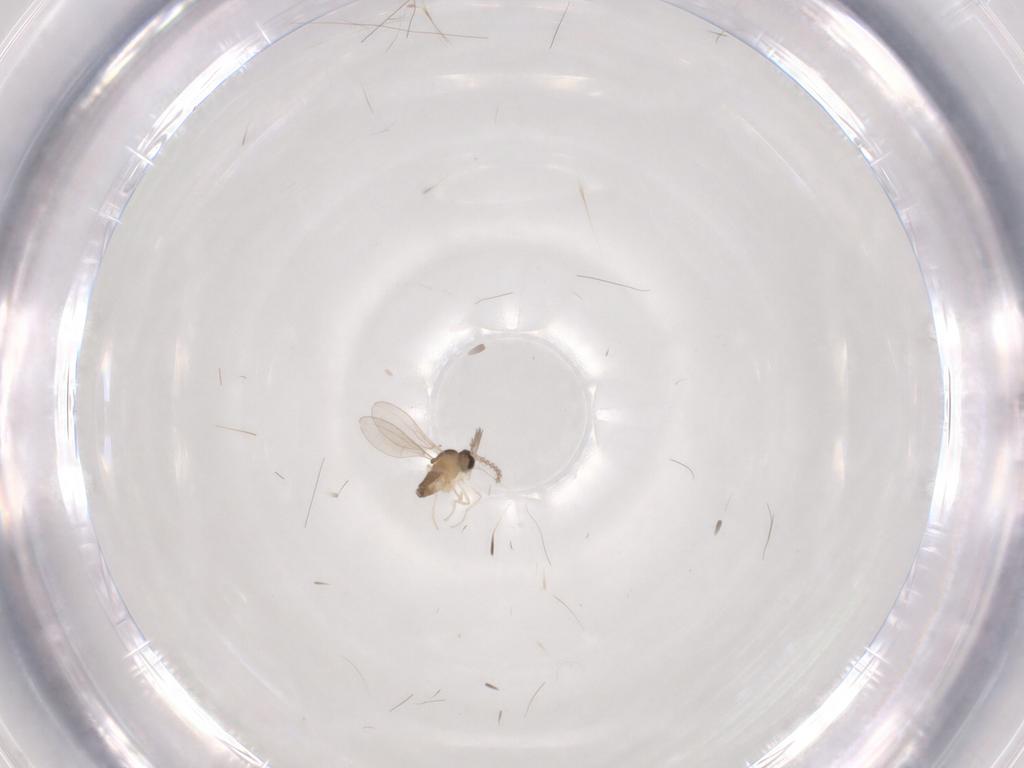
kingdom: Animalia
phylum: Arthropoda
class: Insecta
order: Diptera
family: Cecidomyiidae
